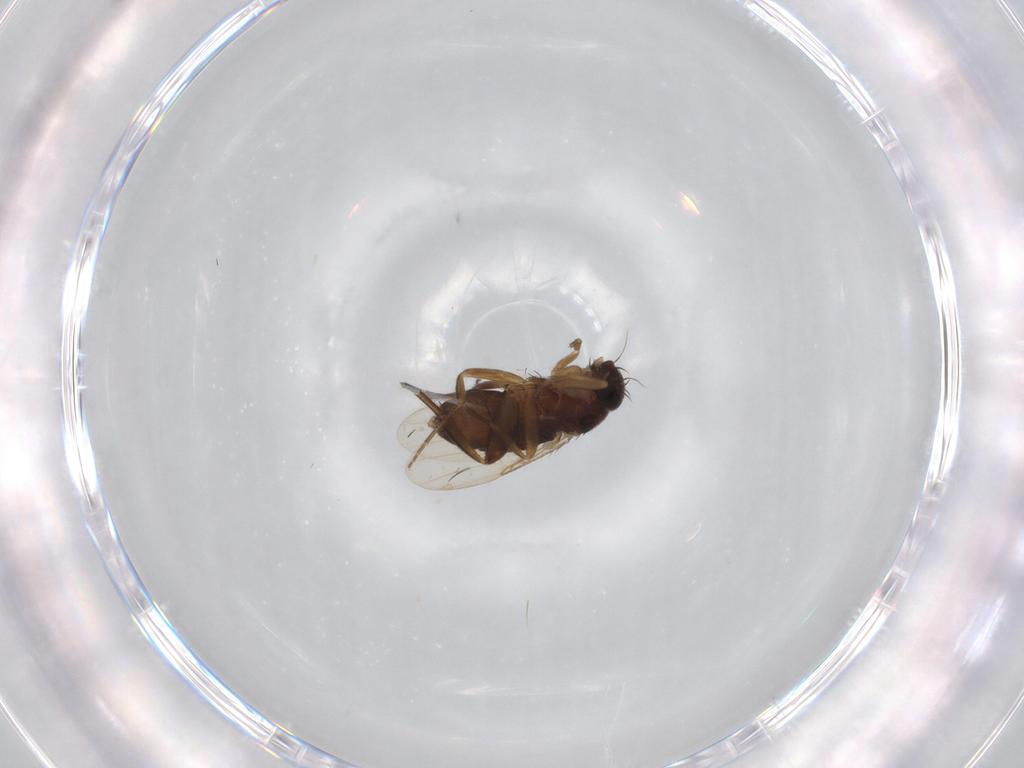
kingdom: Animalia
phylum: Arthropoda
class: Insecta
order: Diptera
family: Phoridae
